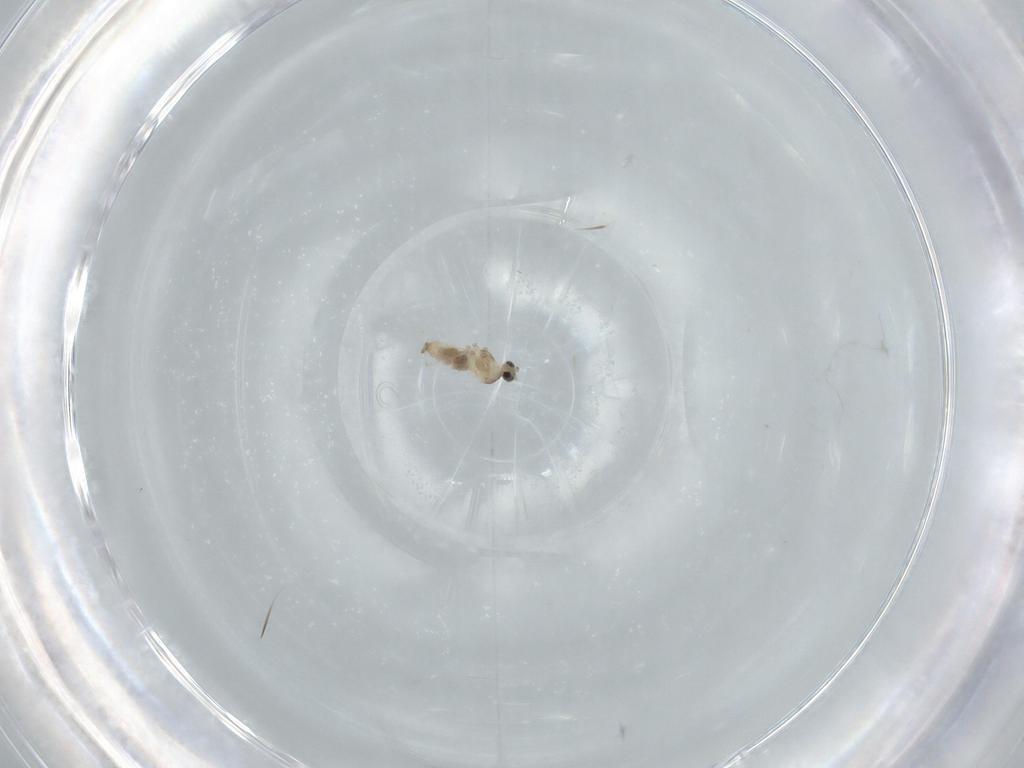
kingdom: Animalia
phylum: Arthropoda
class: Insecta
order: Diptera
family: Cecidomyiidae
